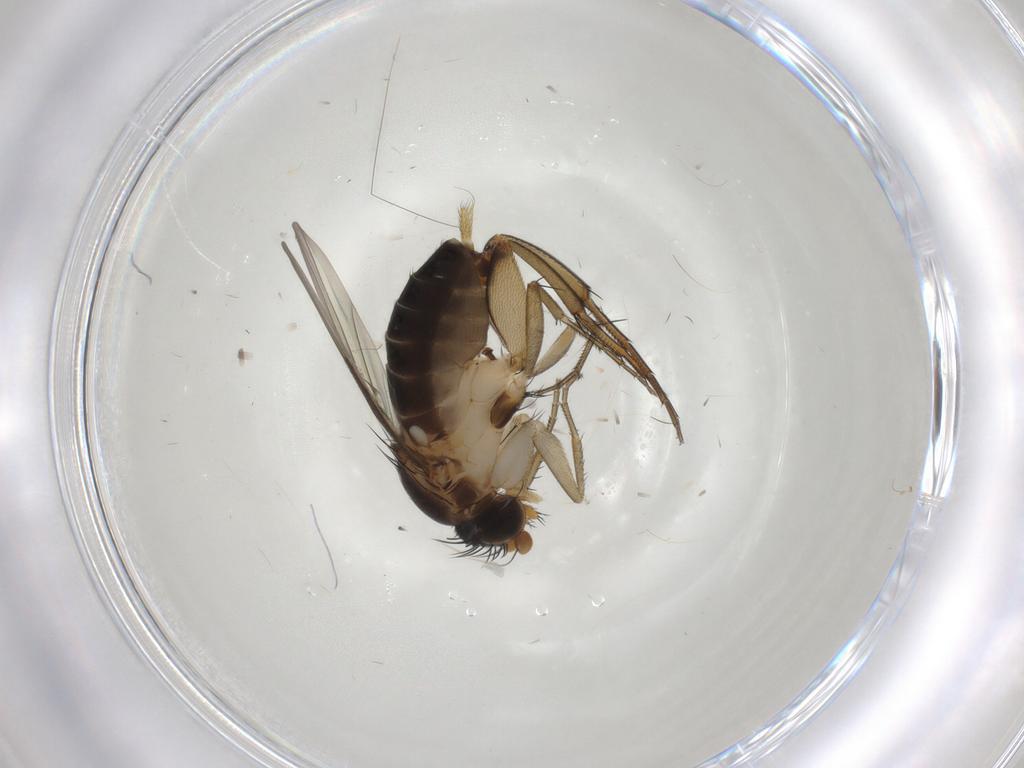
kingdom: Animalia
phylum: Arthropoda
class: Insecta
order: Diptera
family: Phoridae
